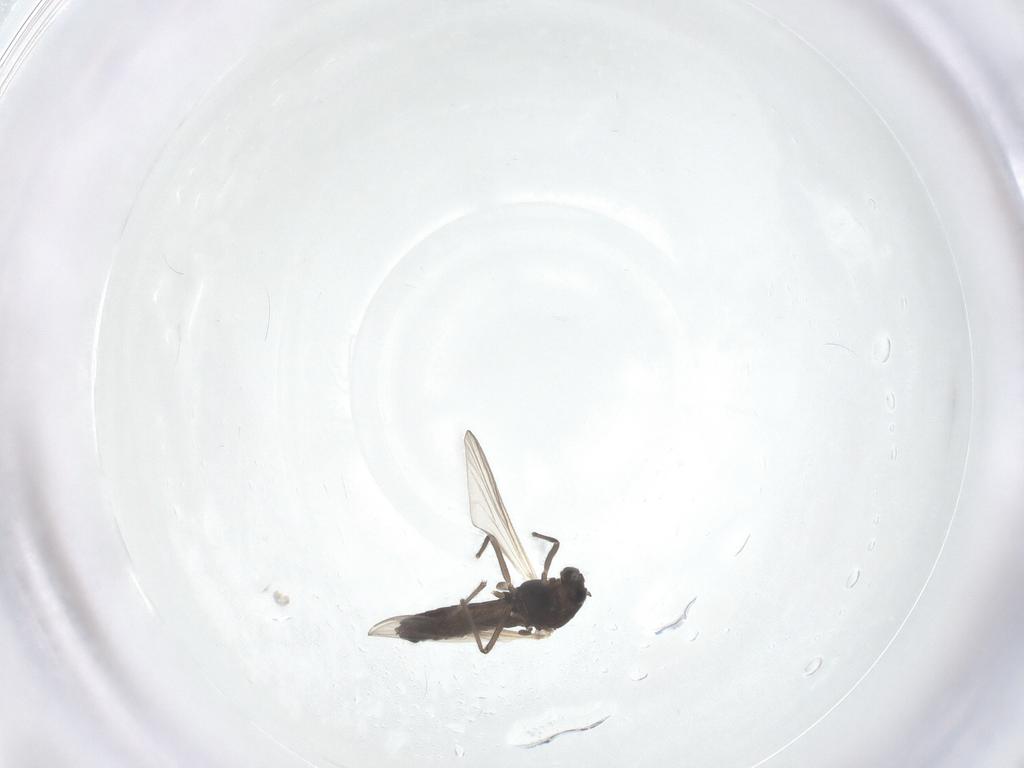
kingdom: Animalia
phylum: Arthropoda
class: Insecta
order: Diptera
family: Chironomidae
